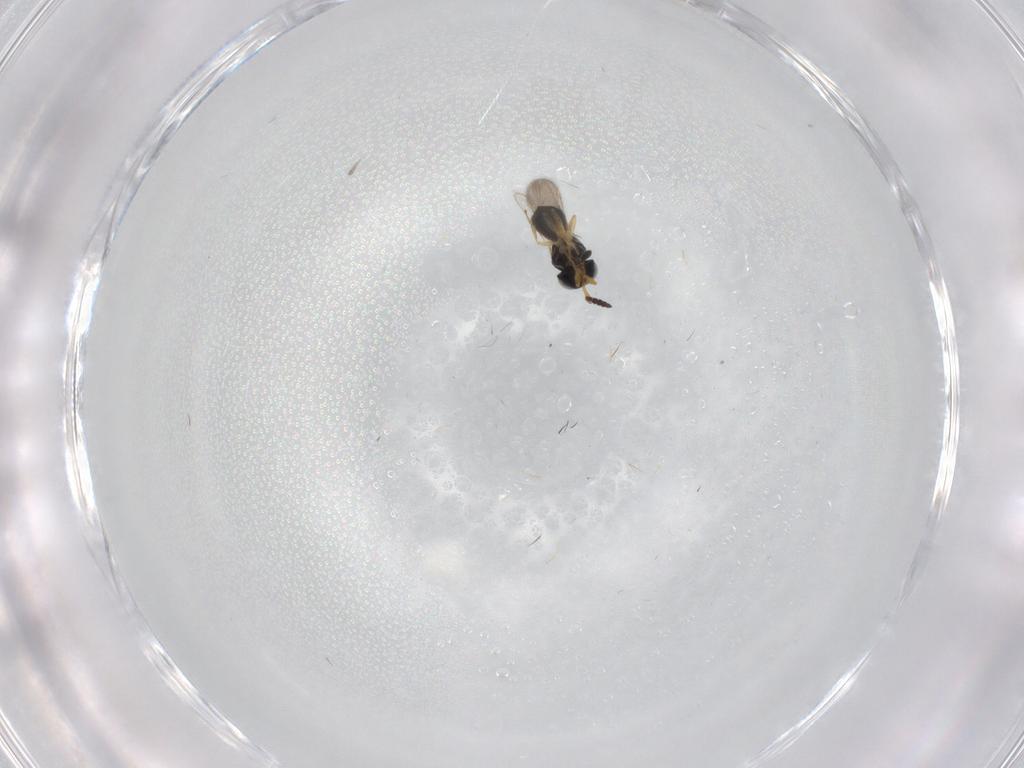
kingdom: Animalia
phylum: Arthropoda
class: Insecta
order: Hymenoptera
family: Scelionidae
